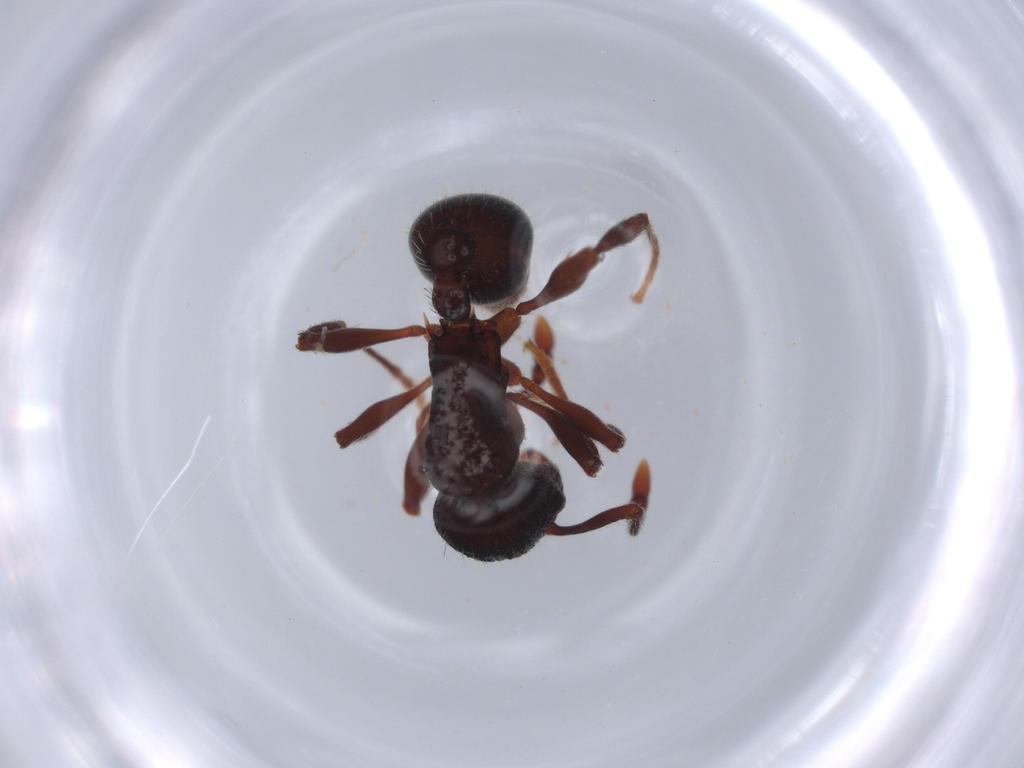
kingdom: Animalia
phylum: Arthropoda
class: Insecta
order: Hymenoptera
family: Formicidae
